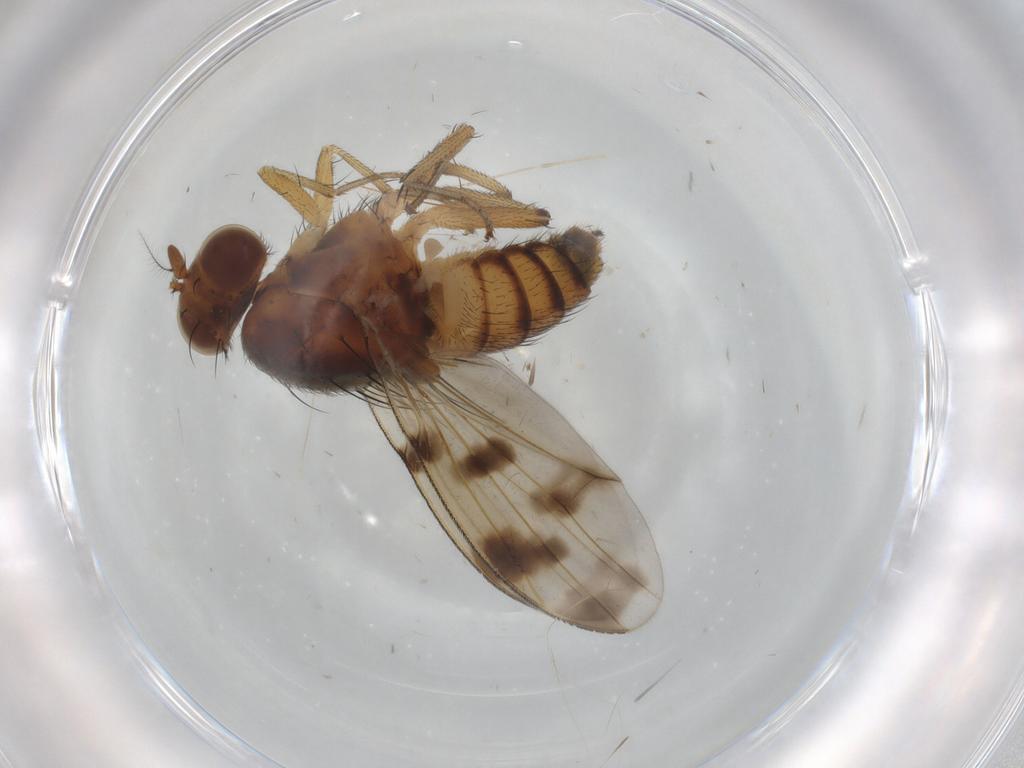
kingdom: Animalia
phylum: Arthropoda
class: Insecta
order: Diptera
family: Lauxaniidae
